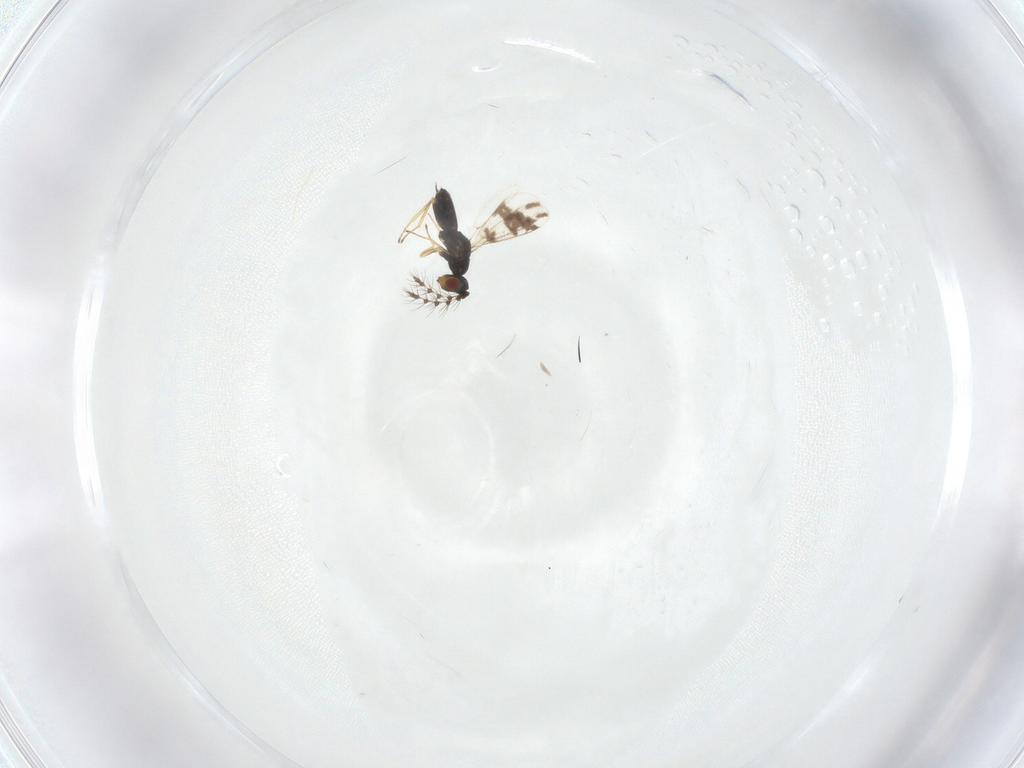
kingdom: Animalia
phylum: Arthropoda
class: Insecta
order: Hymenoptera
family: Eulophidae
